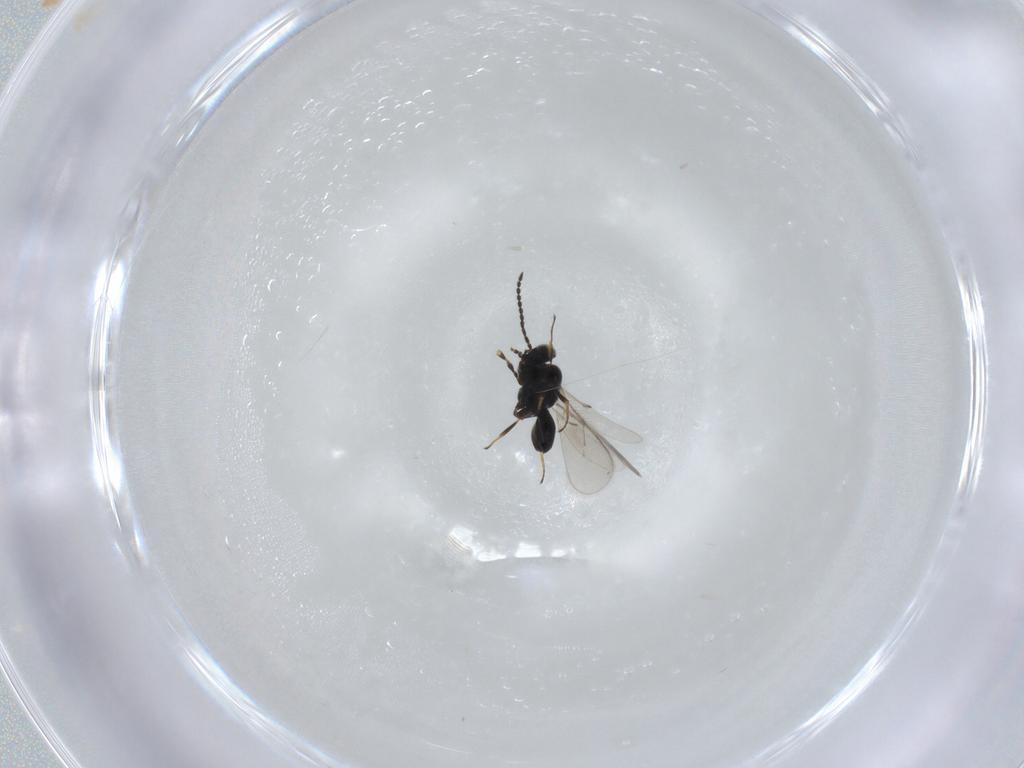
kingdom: Animalia
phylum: Arthropoda
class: Insecta
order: Hymenoptera
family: Scelionidae
